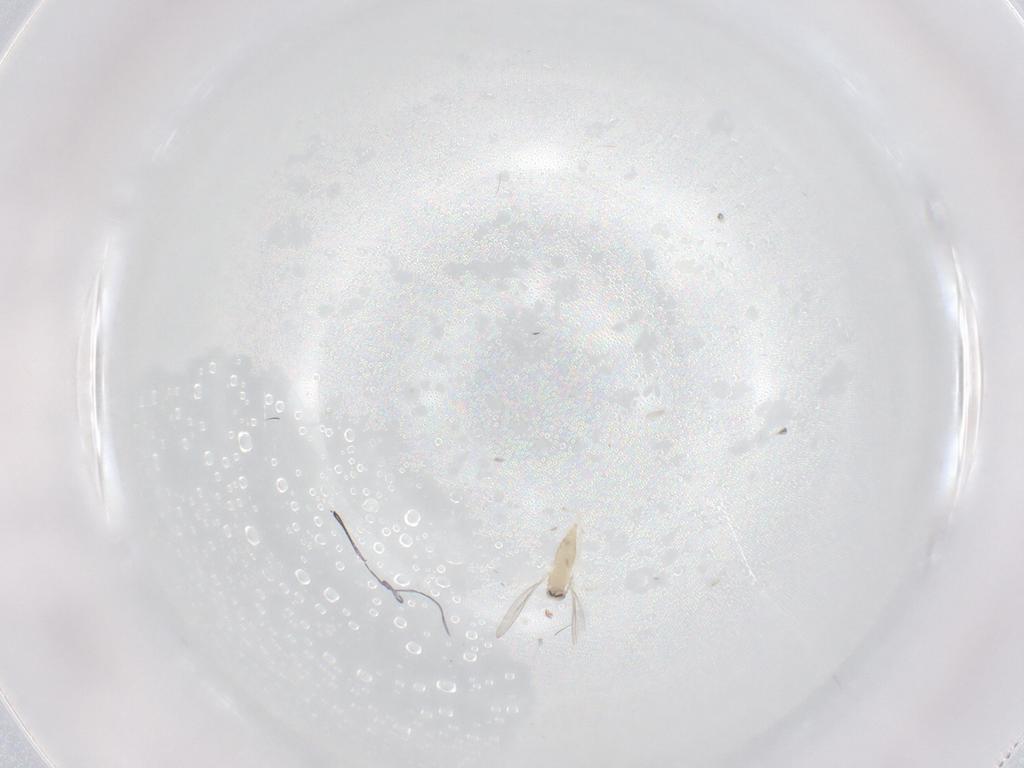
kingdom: Animalia
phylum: Arthropoda
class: Insecta
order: Diptera
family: Cecidomyiidae
